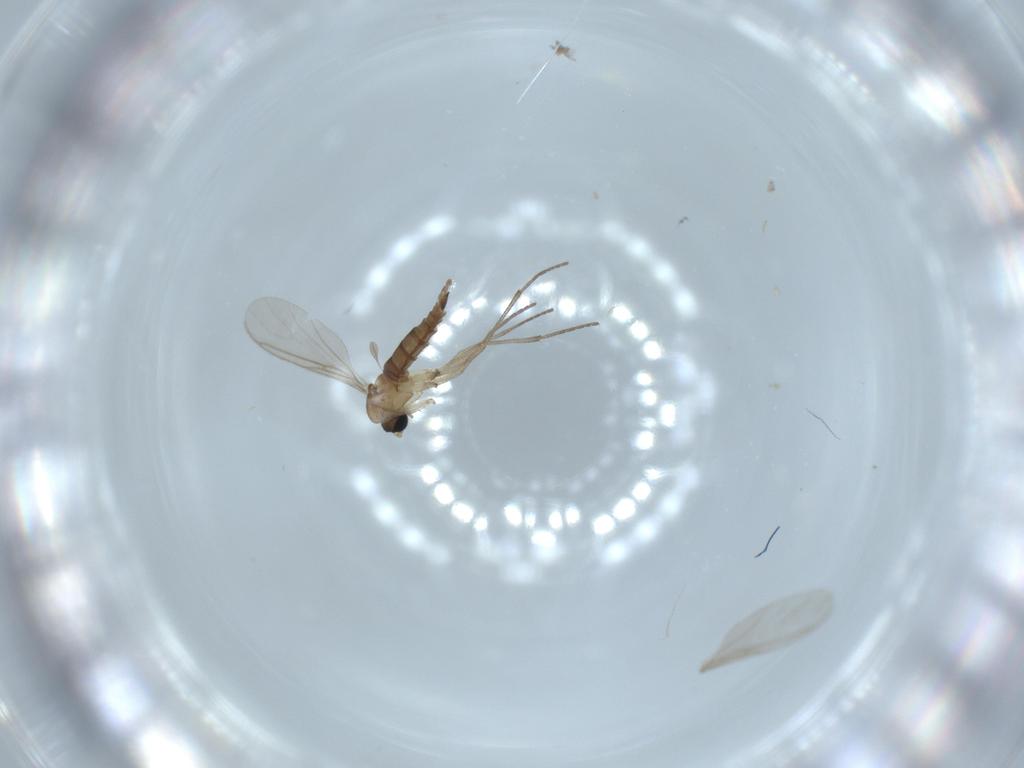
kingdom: Animalia
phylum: Arthropoda
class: Insecta
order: Diptera
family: Sciaridae
